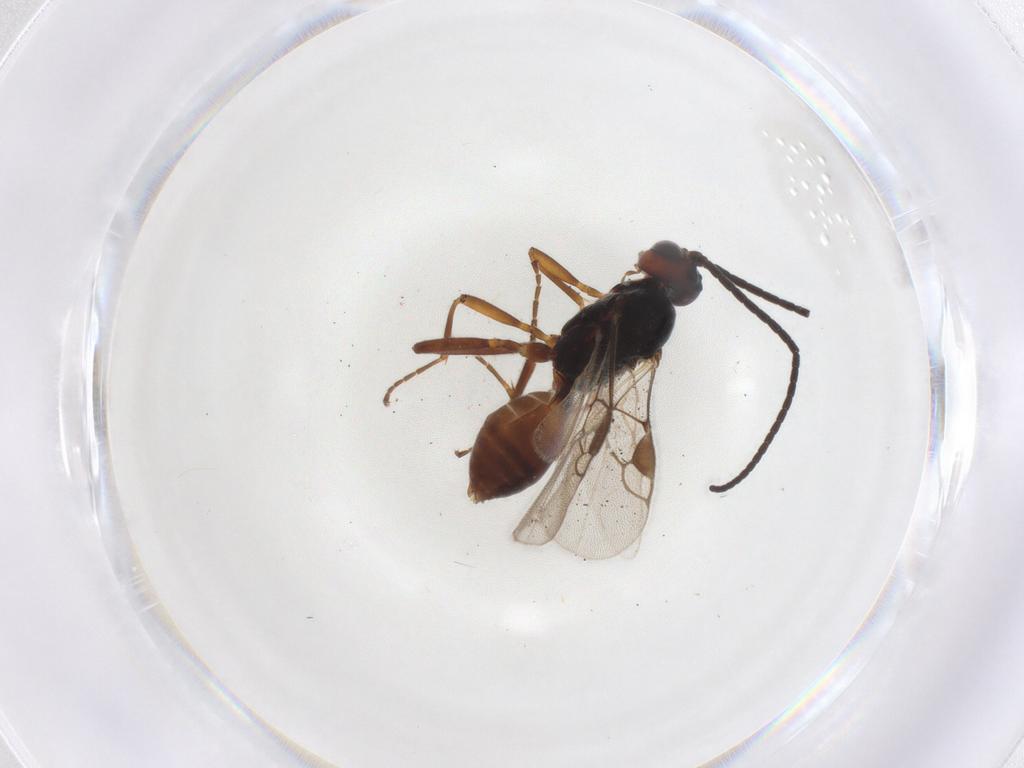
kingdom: Animalia
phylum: Arthropoda
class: Insecta
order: Hymenoptera
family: Braconidae
